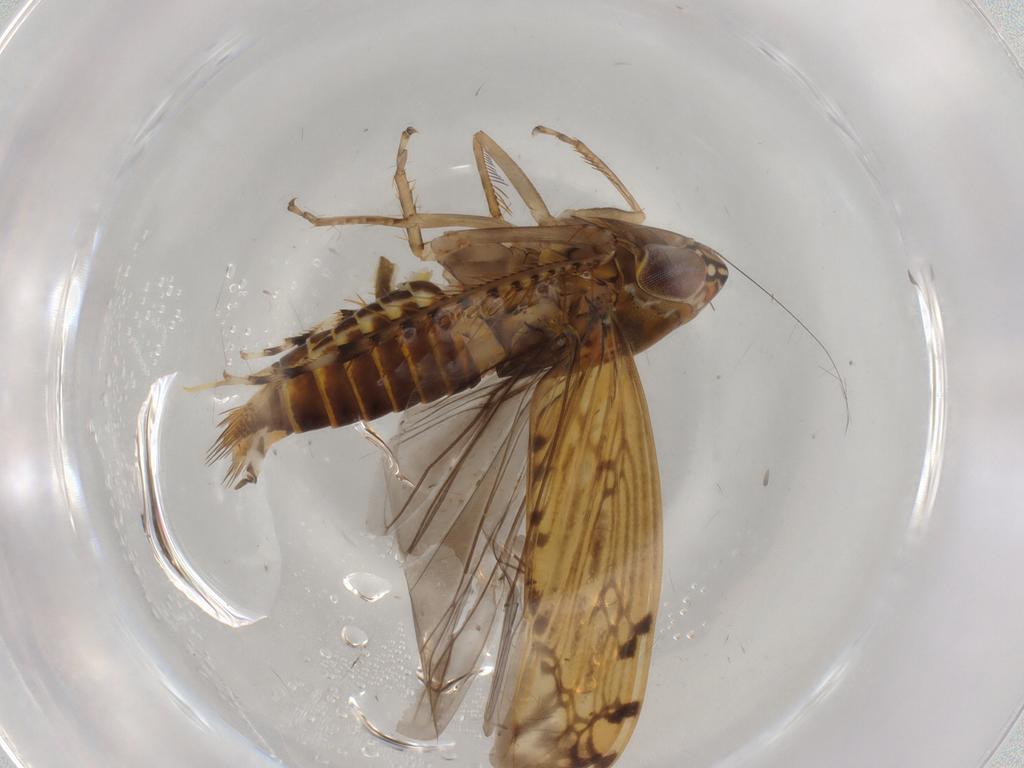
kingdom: Animalia
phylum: Arthropoda
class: Insecta
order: Hemiptera
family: Cicadellidae
